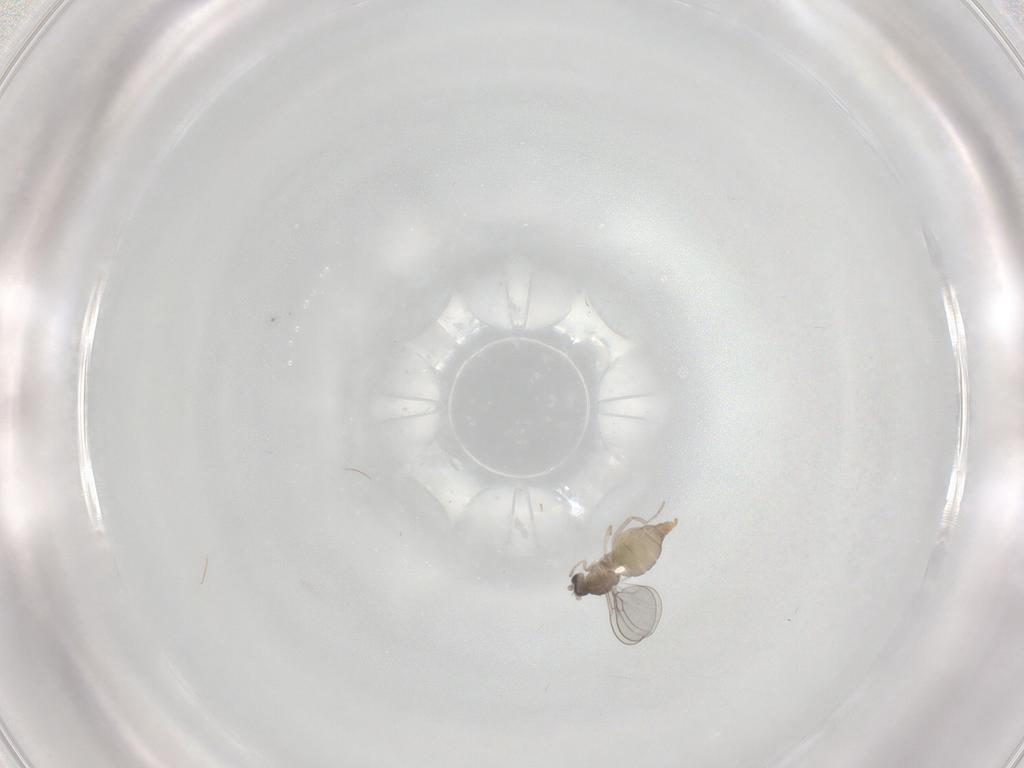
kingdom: Animalia
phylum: Arthropoda
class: Insecta
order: Diptera
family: Cecidomyiidae
